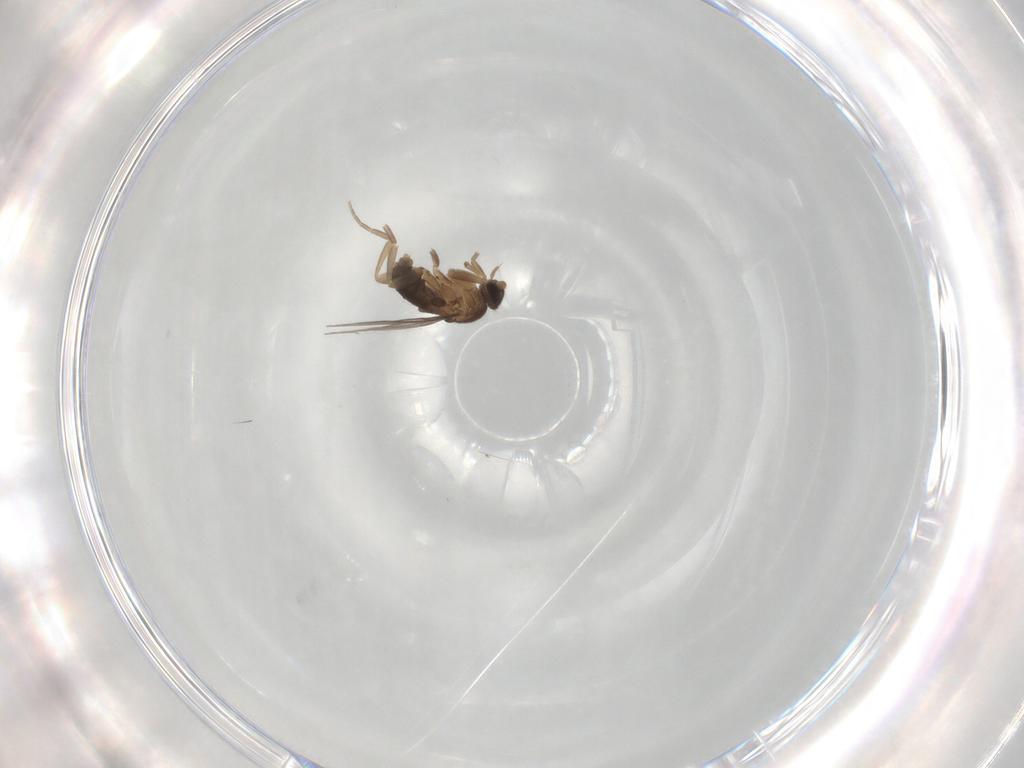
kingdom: Animalia
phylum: Arthropoda
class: Insecta
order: Diptera
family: Phoridae
